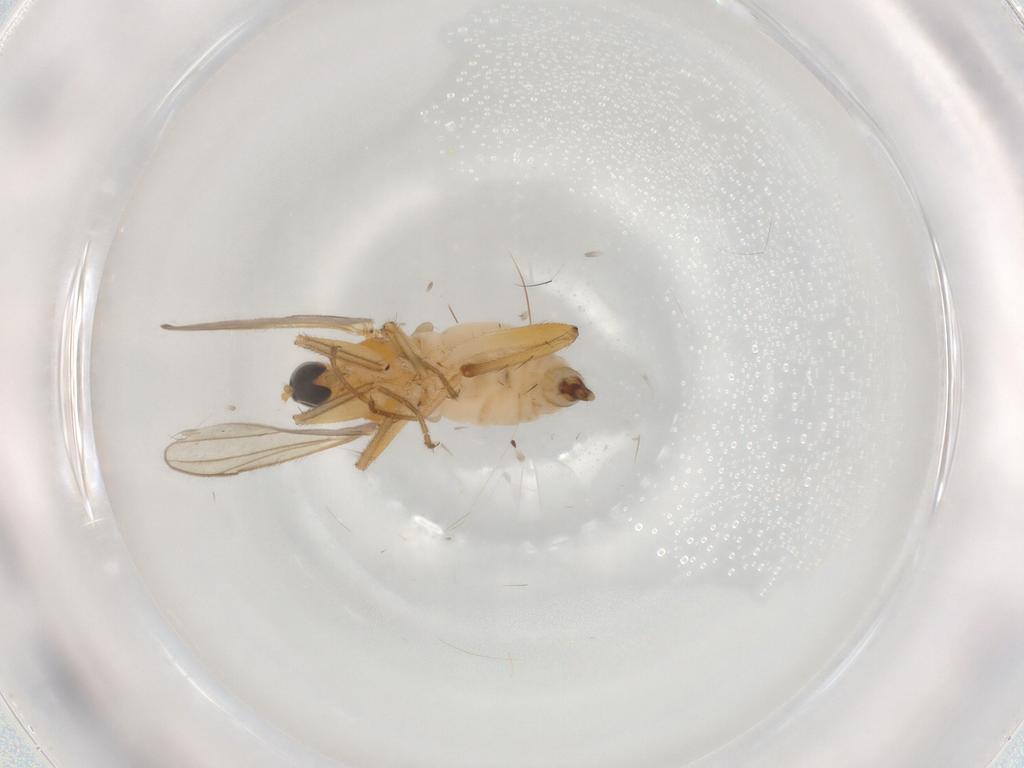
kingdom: Animalia
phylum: Arthropoda
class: Insecta
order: Diptera
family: Hybotidae
